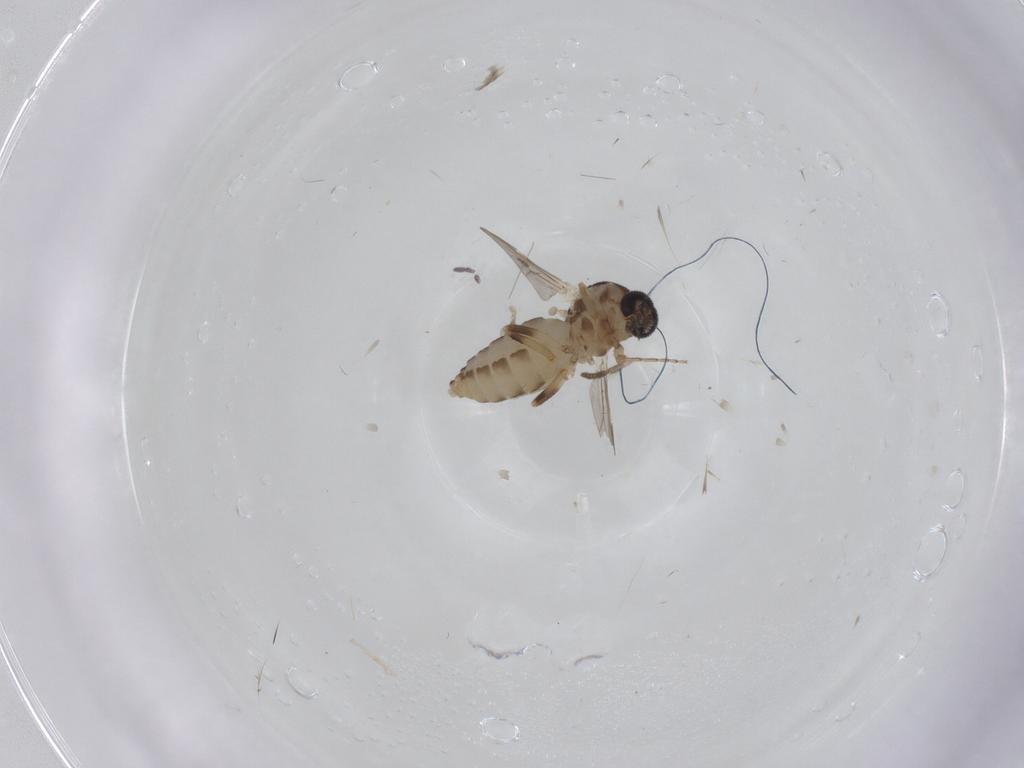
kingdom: Animalia
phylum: Arthropoda
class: Insecta
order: Diptera
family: Ceratopogonidae
